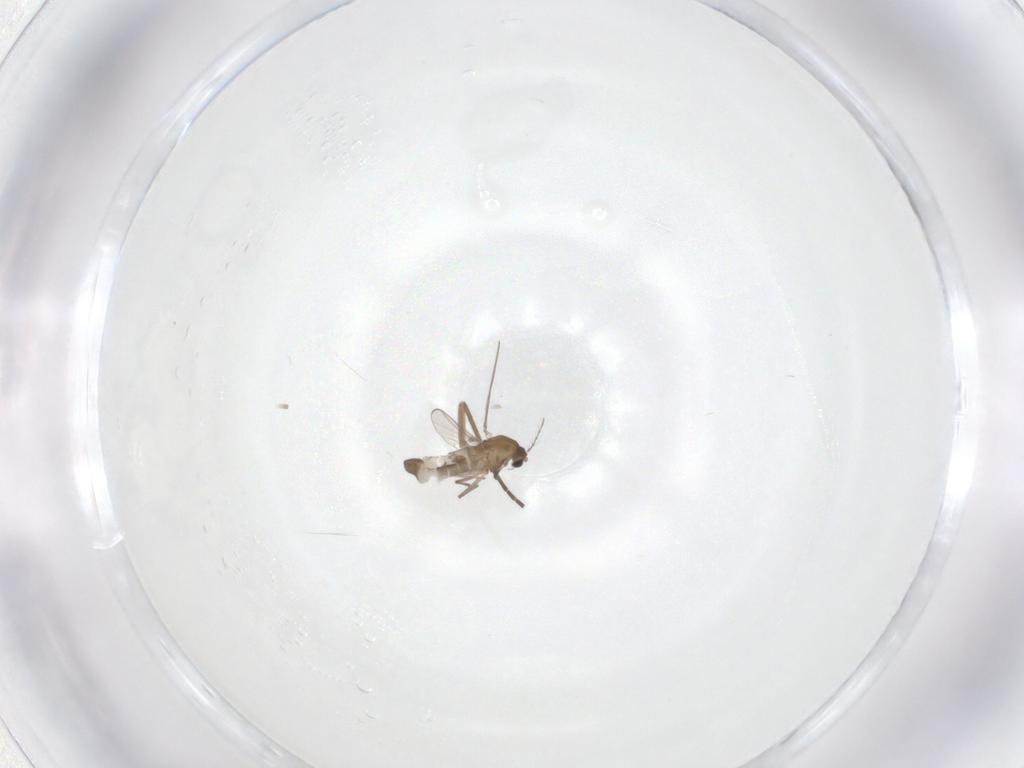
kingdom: Animalia
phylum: Arthropoda
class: Insecta
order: Diptera
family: Sciaridae
